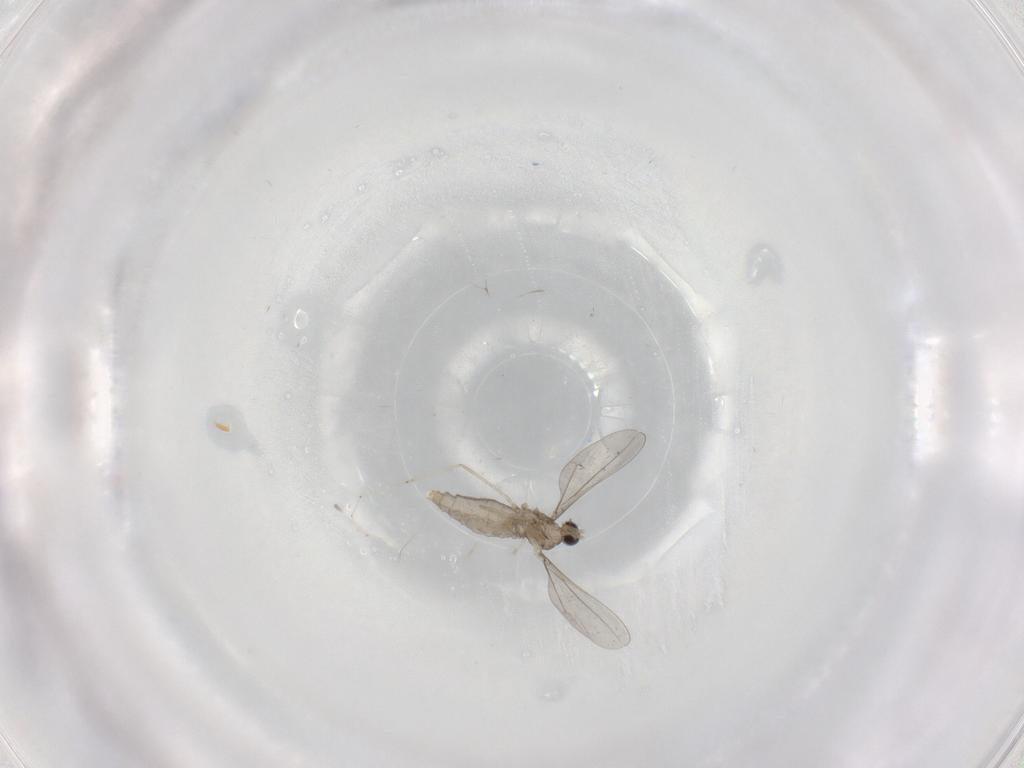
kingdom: Animalia
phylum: Arthropoda
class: Insecta
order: Diptera
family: Cecidomyiidae
